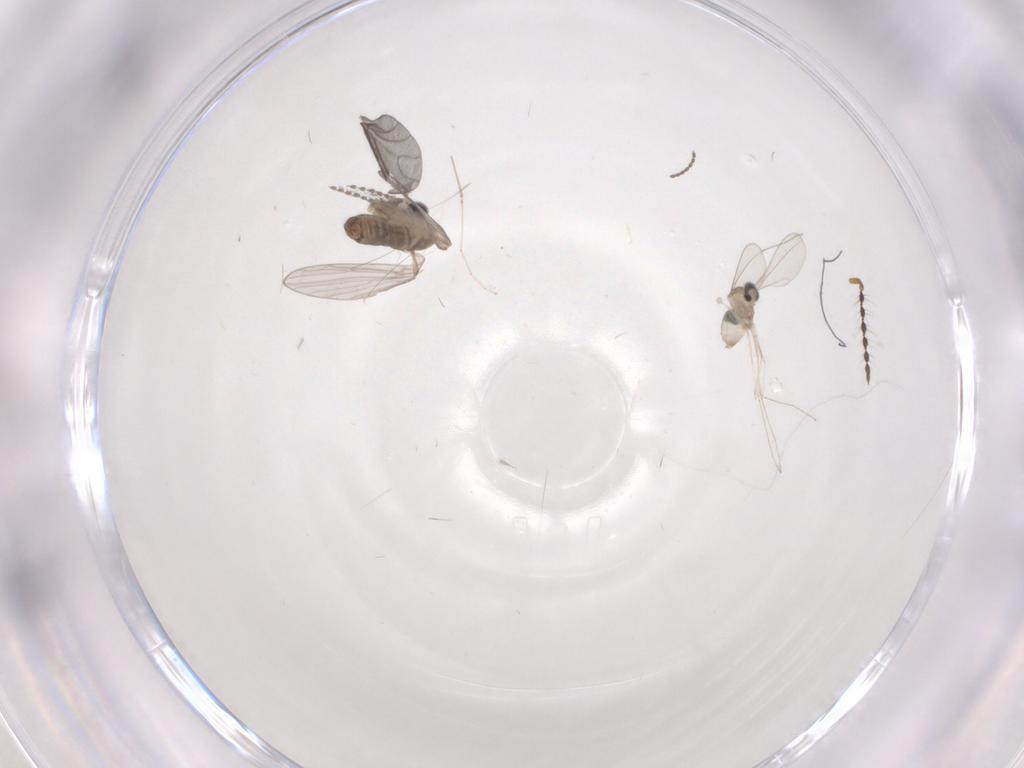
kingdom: Animalia
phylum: Arthropoda
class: Insecta
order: Diptera
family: Cecidomyiidae
